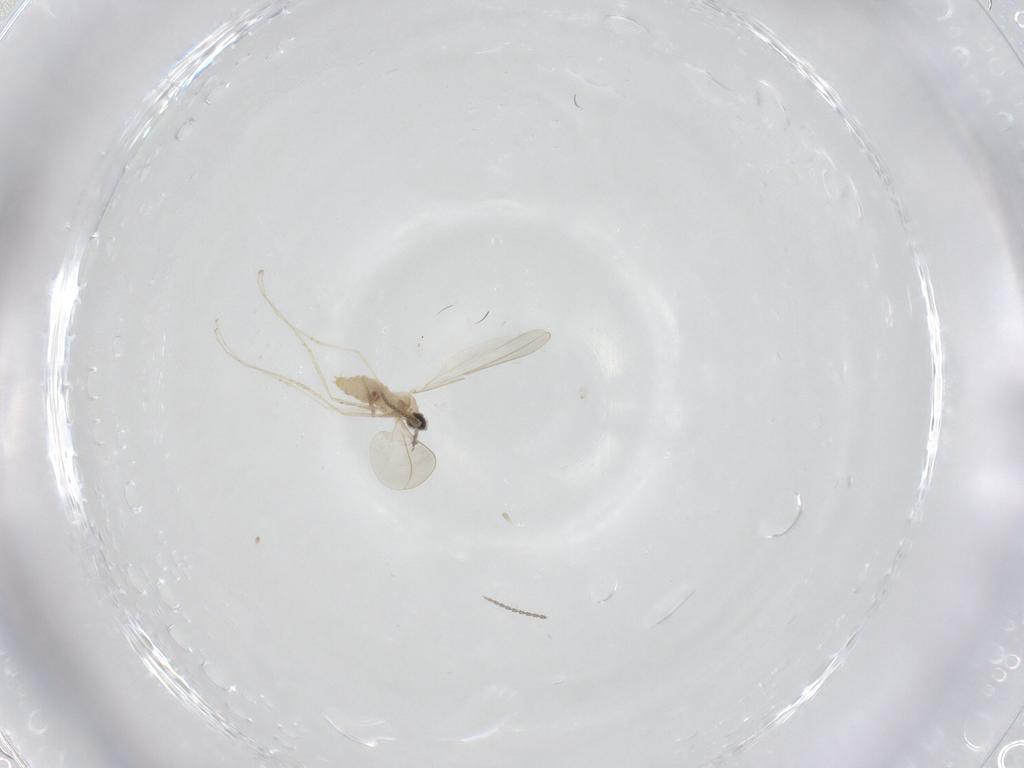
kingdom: Animalia
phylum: Arthropoda
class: Insecta
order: Diptera
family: Cecidomyiidae
